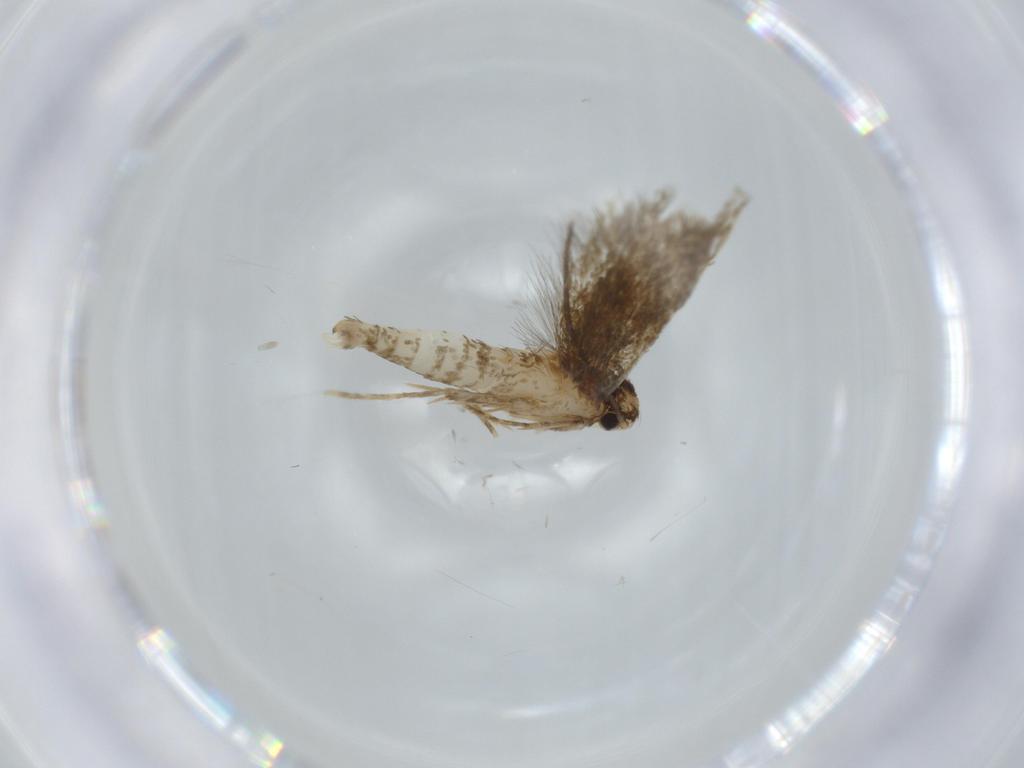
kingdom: Animalia
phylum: Arthropoda
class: Insecta
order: Lepidoptera
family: Tineidae
